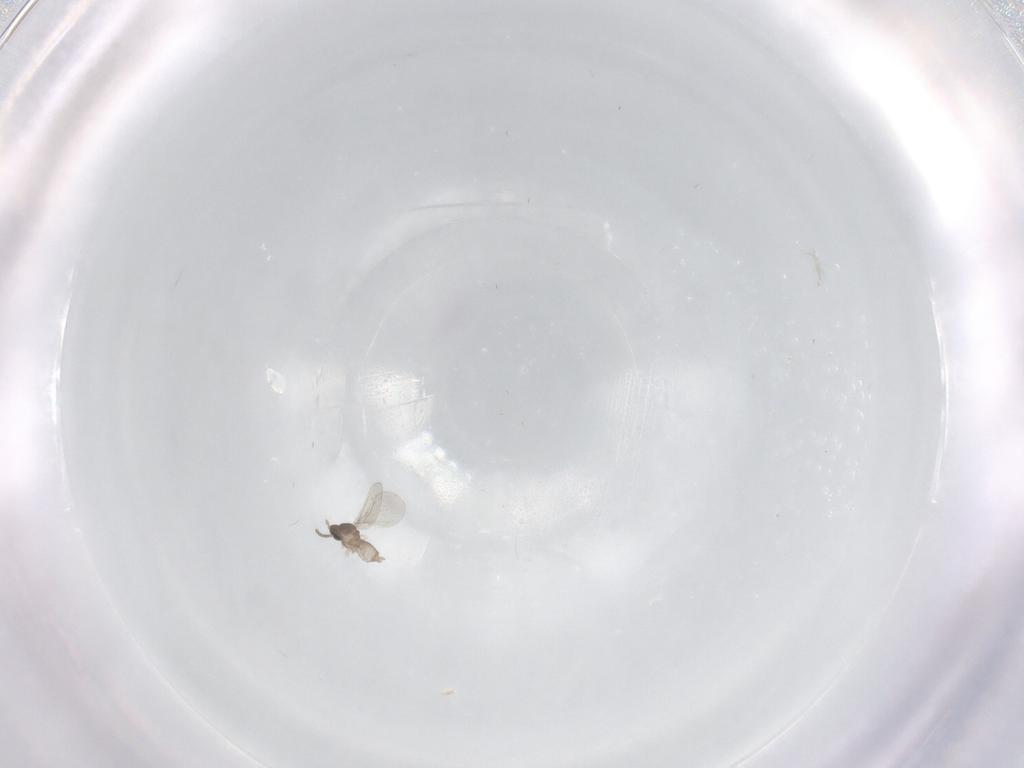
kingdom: Animalia
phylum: Arthropoda
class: Insecta
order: Diptera
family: Cecidomyiidae
